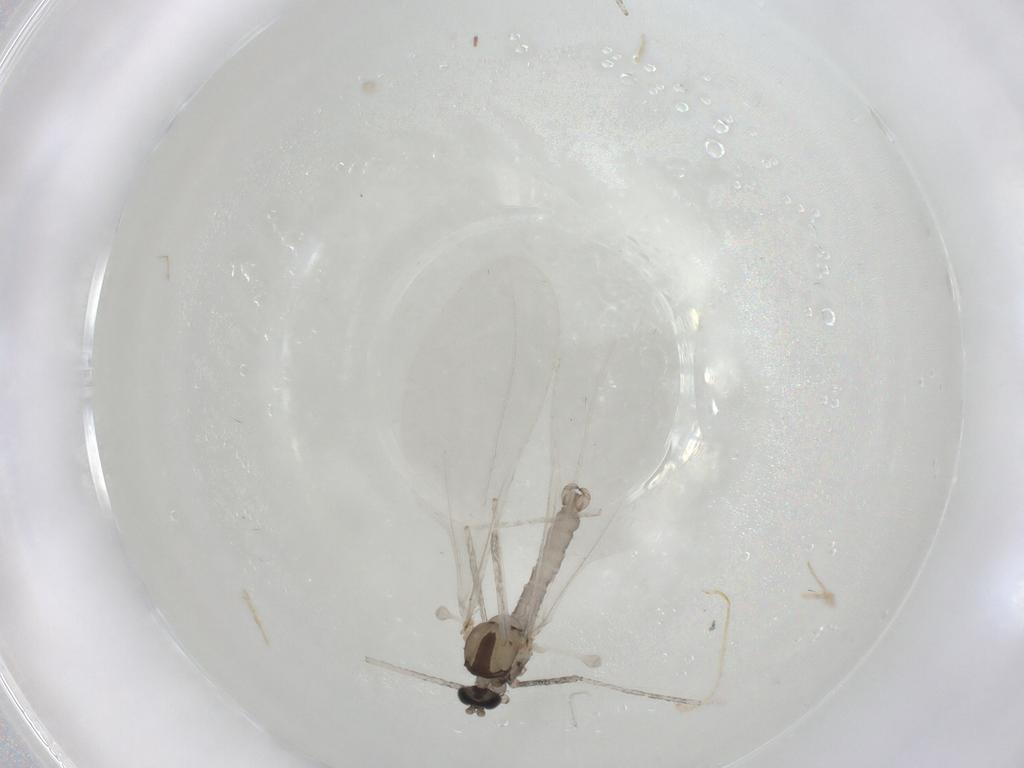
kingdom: Animalia
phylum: Arthropoda
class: Insecta
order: Diptera
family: Cecidomyiidae
